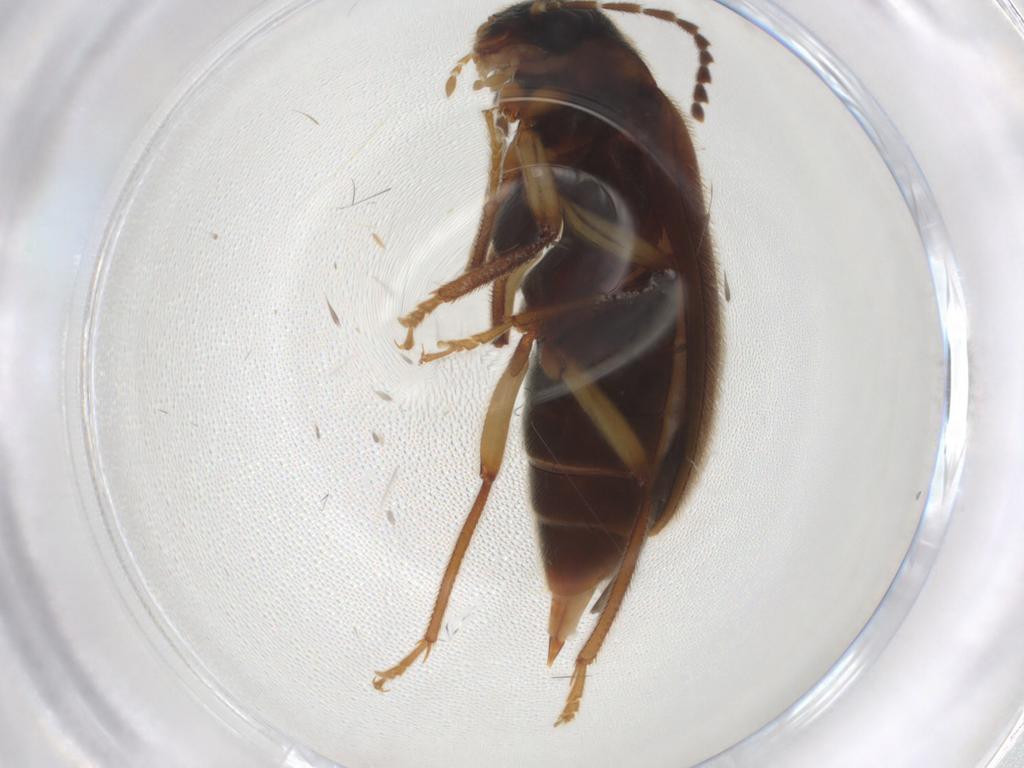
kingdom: Animalia
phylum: Arthropoda
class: Insecta
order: Coleoptera
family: Ptilodactylidae
